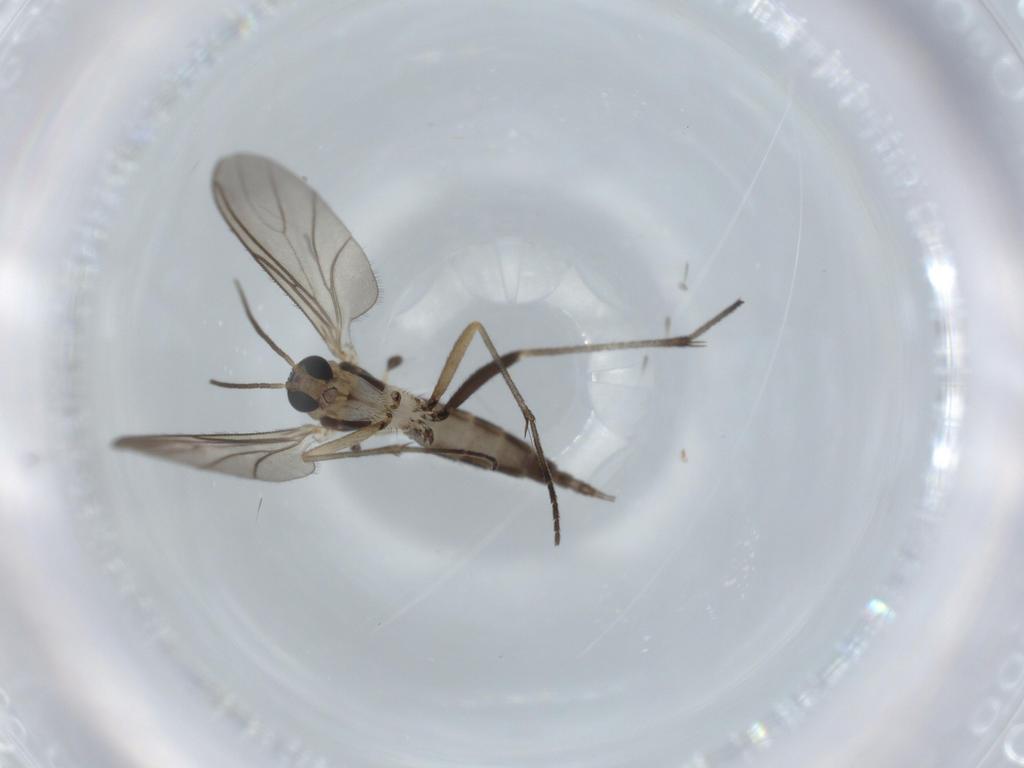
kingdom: Animalia
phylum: Arthropoda
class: Insecta
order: Diptera
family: Sciaridae
